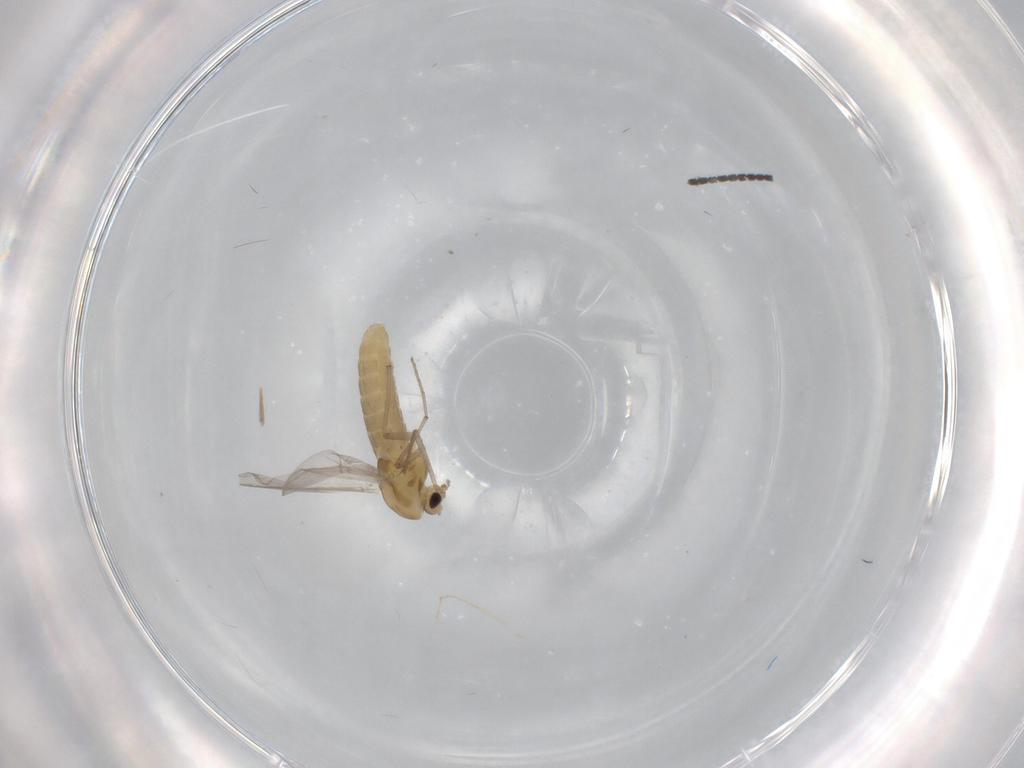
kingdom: Animalia
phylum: Arthropoda
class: Insecta
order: Diptera
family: Chironomidae
